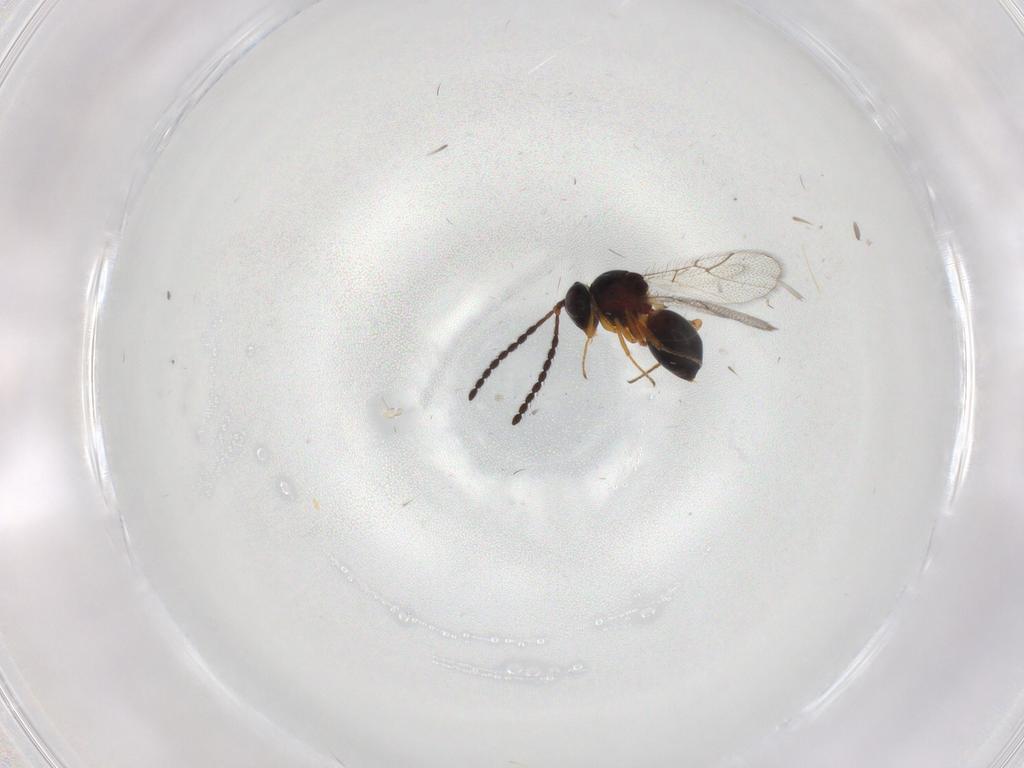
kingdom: Animalia
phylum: Arthropoda
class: Insecta
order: Hymenoptera
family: Figitidae
